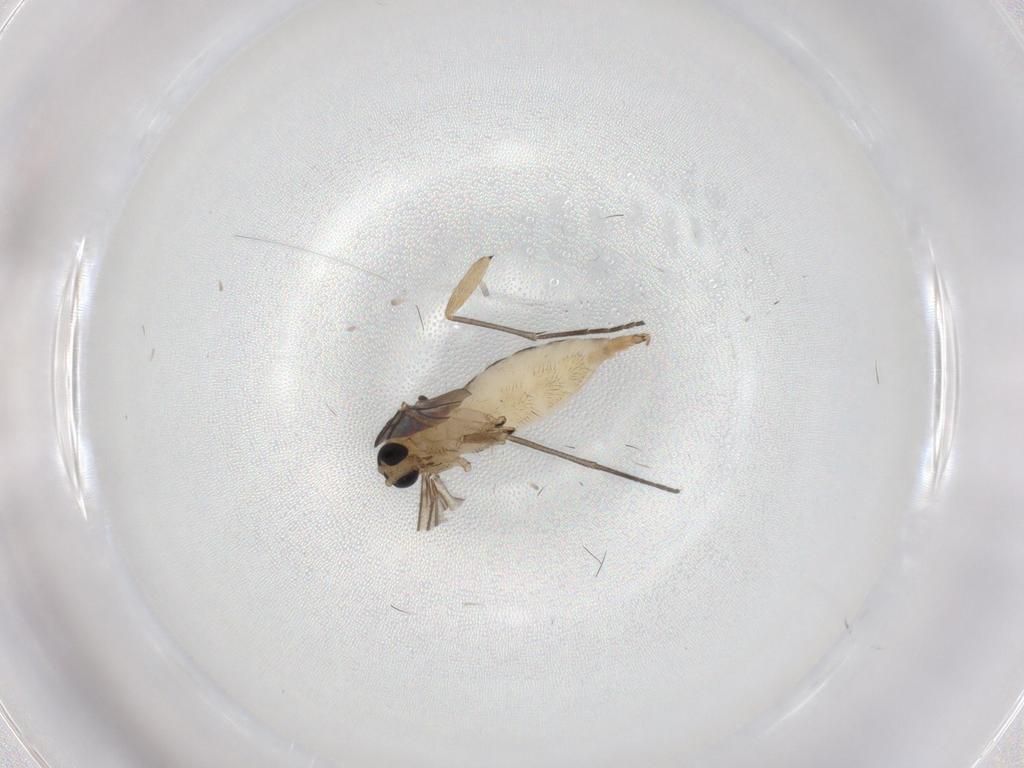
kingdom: Animalia
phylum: Arthropoda
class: Insecta
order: Diptera
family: Sciaridae
